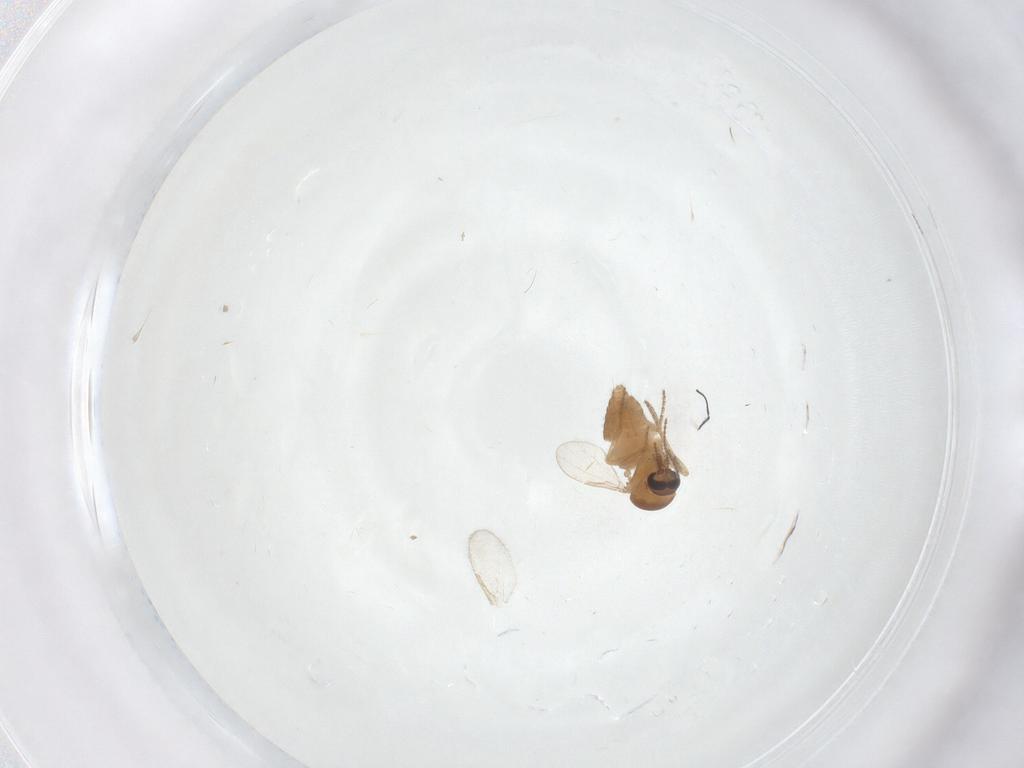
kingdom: Animalia
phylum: Arthropoda
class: Insecta
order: Diptera
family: Ceratopogonidae
